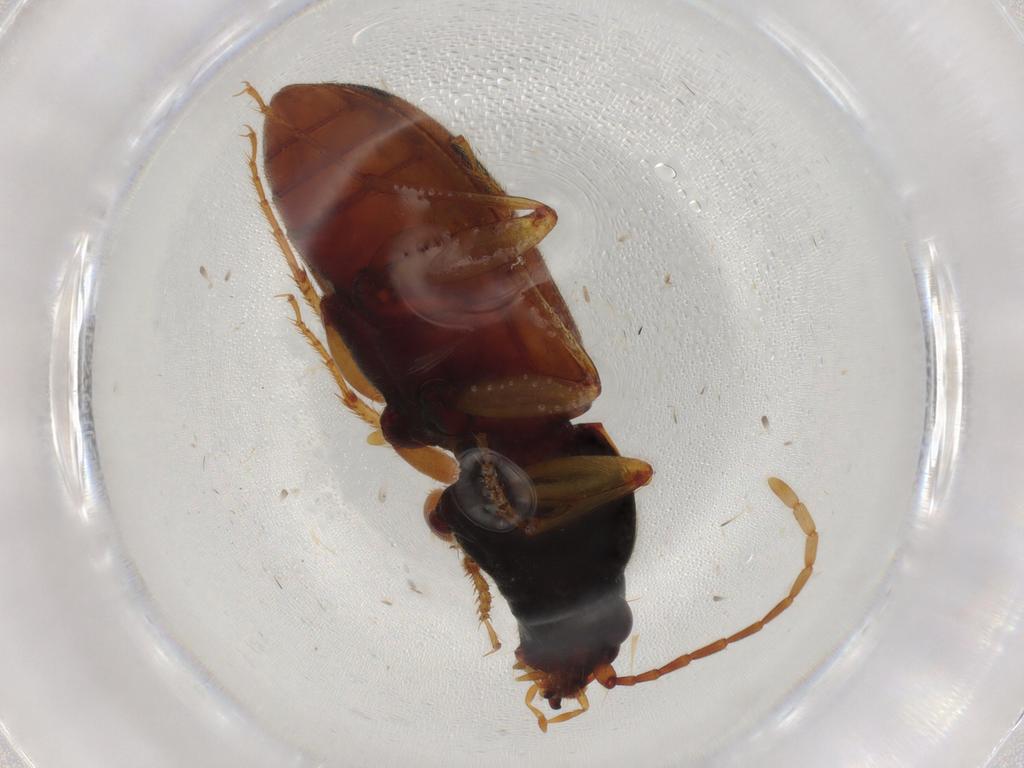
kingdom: Animalia
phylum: Arthropoda
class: Insecta
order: Coleoptera
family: Carabidae
